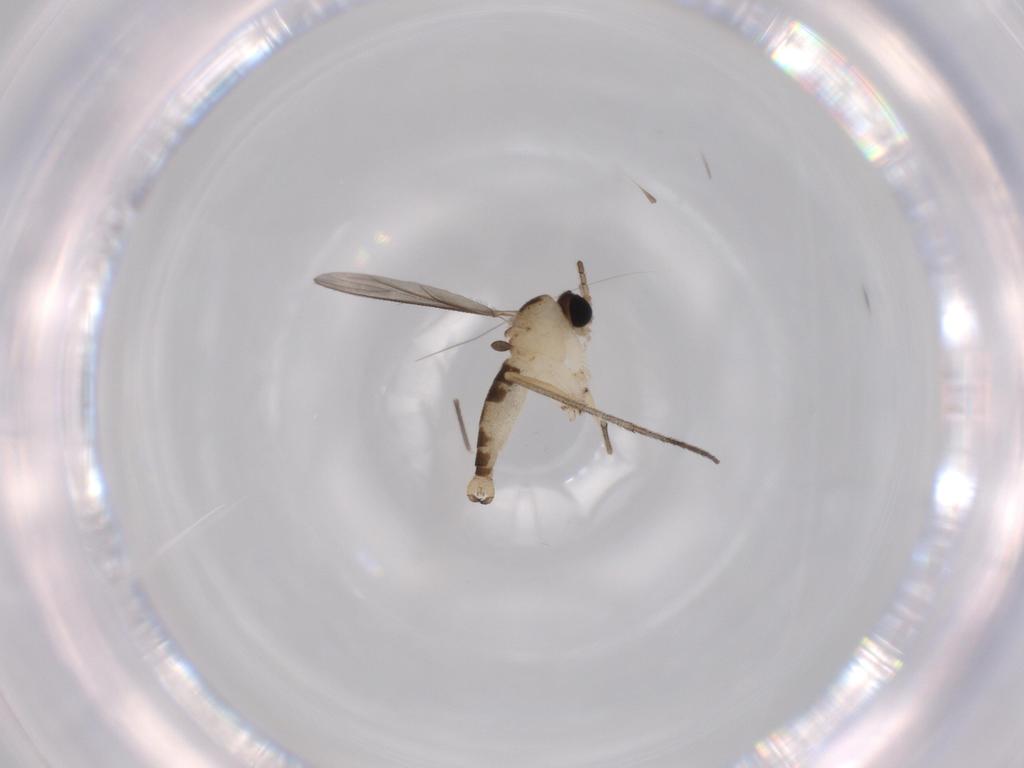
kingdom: Animalia
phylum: Arthropoda
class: Insecta
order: Diptera
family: Sciaridae
